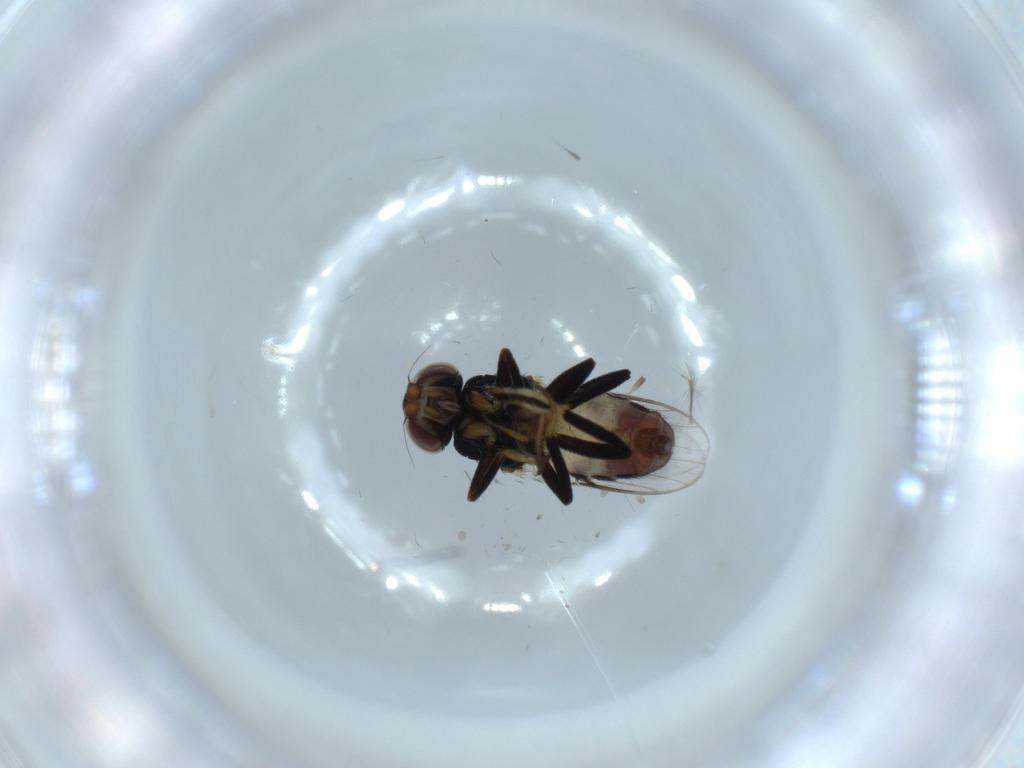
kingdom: Animalia
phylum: Arthropoda
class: Insecta
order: Diptera
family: Chloropidae
